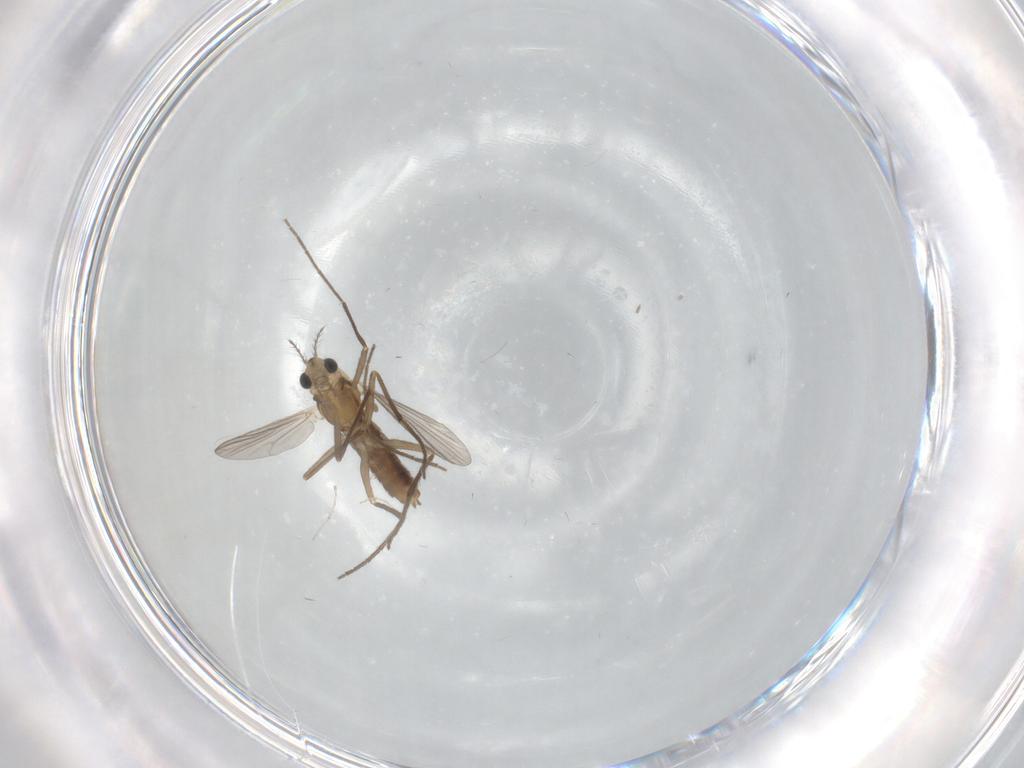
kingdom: Animalia
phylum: Arthropoda
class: Insecta
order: Diptera
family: Chironomidae
